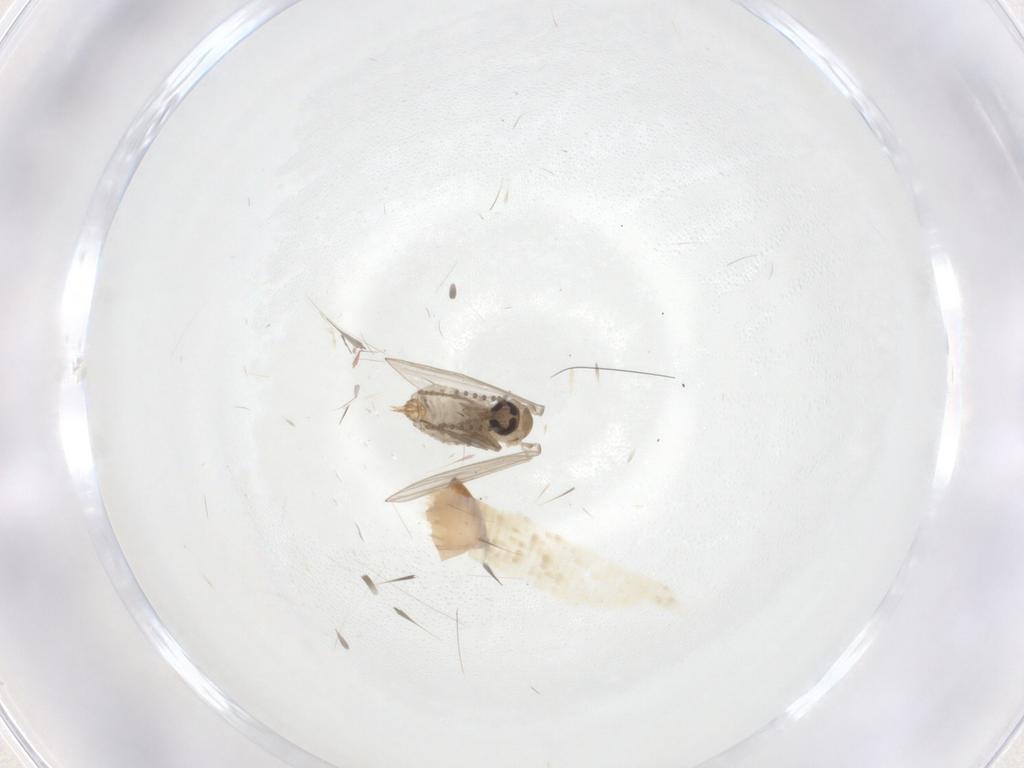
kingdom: Animalia
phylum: Arthropoda
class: Insecta
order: Diptera
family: Psychodidae
